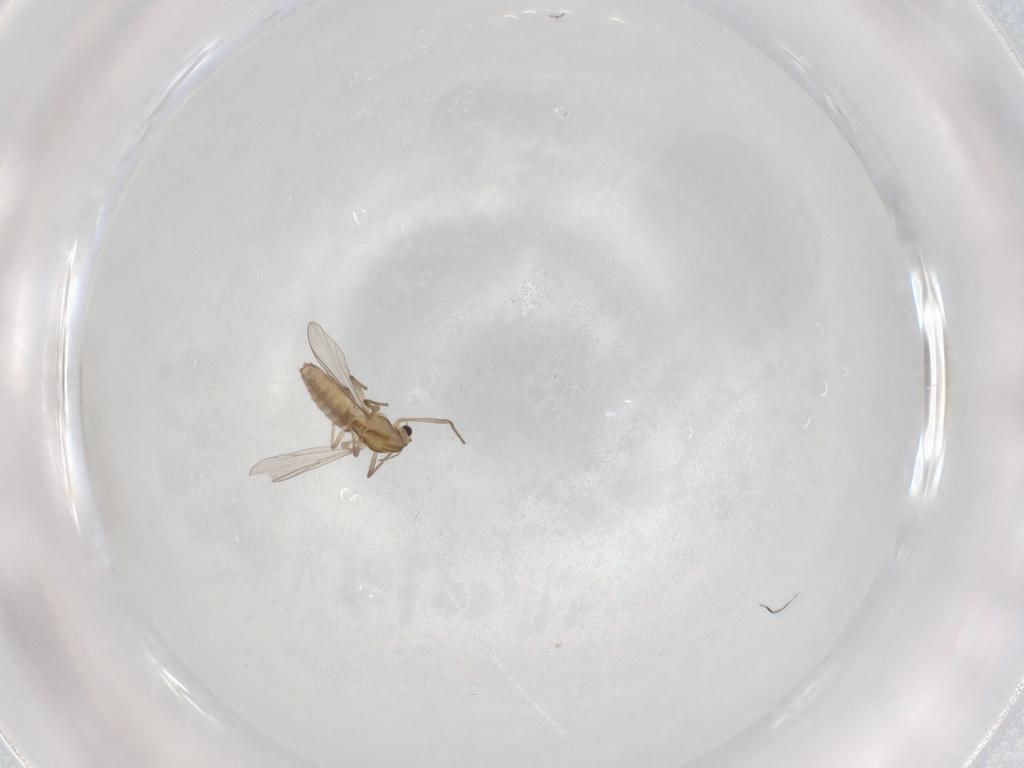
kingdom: Animalia
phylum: Arthropoda
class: Insecta
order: Diptera
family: Chironomidae
